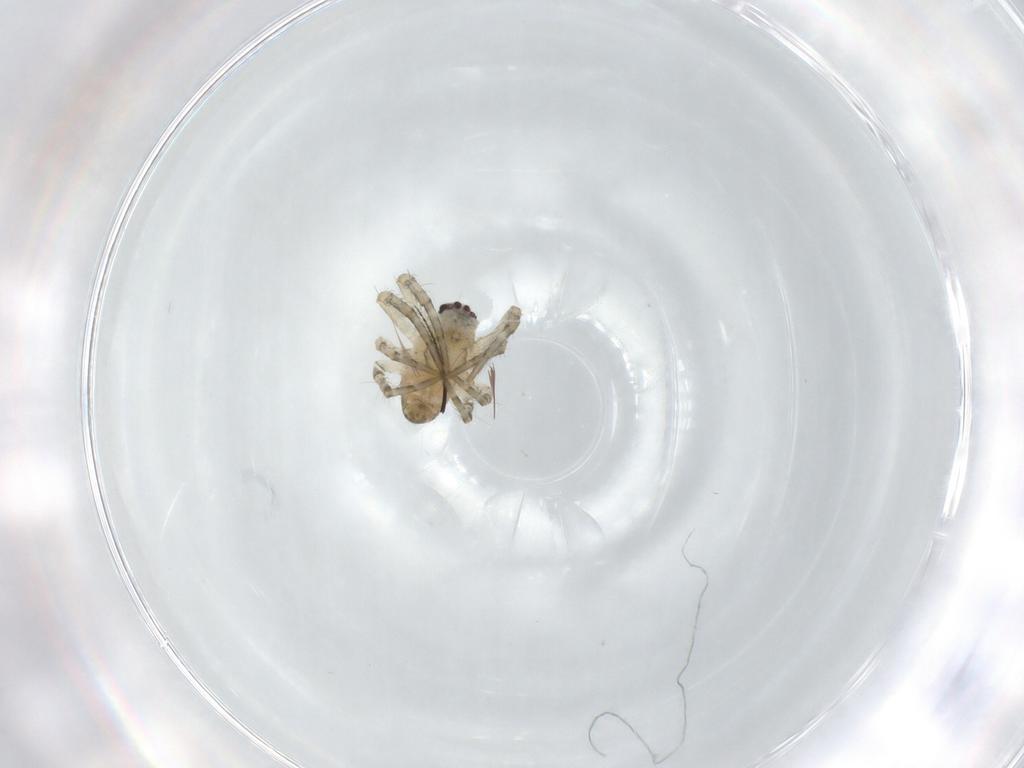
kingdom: Animalia
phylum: Arthropoda
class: Arachnida
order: Araneae
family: Araneidae
